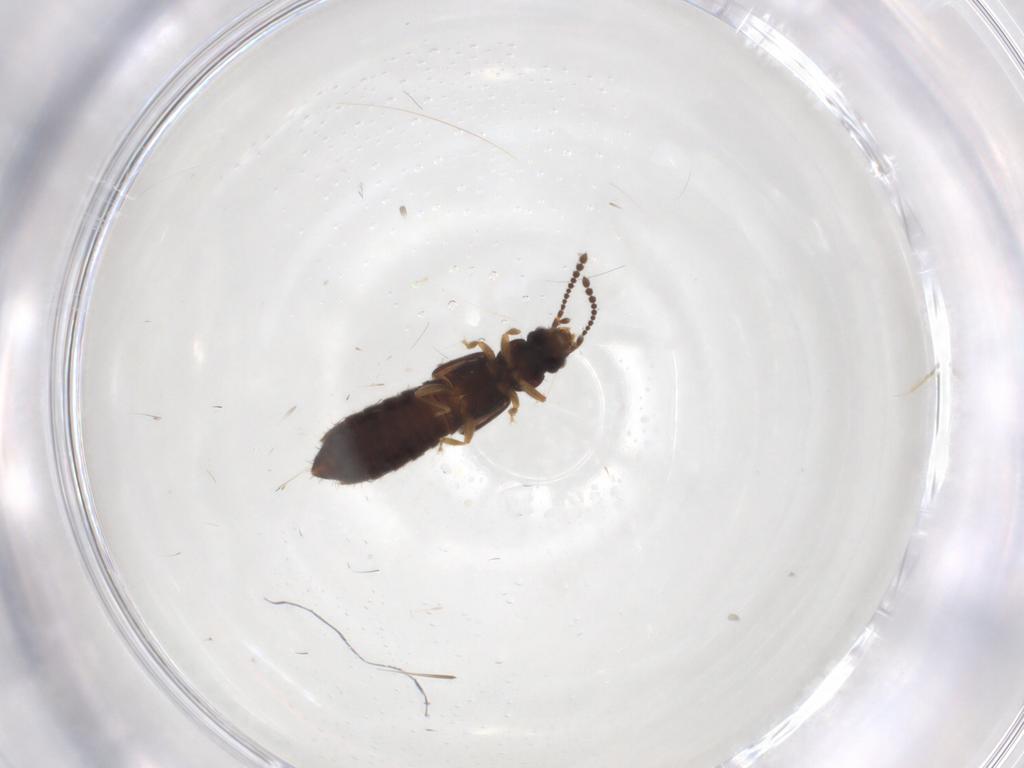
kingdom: Animalia
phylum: Arthropoda
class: Insecta
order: Coleoptera
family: Staphylinidae
